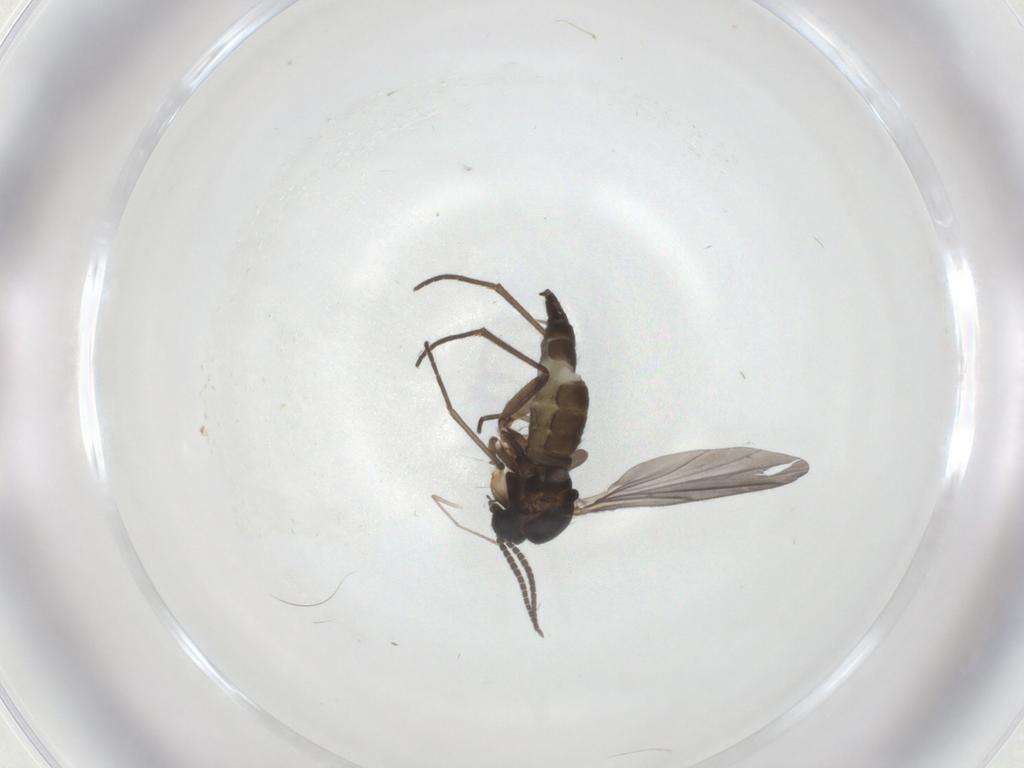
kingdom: Animalia
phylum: Arthropoda
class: Insecta
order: Diptera
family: Sciaridae
